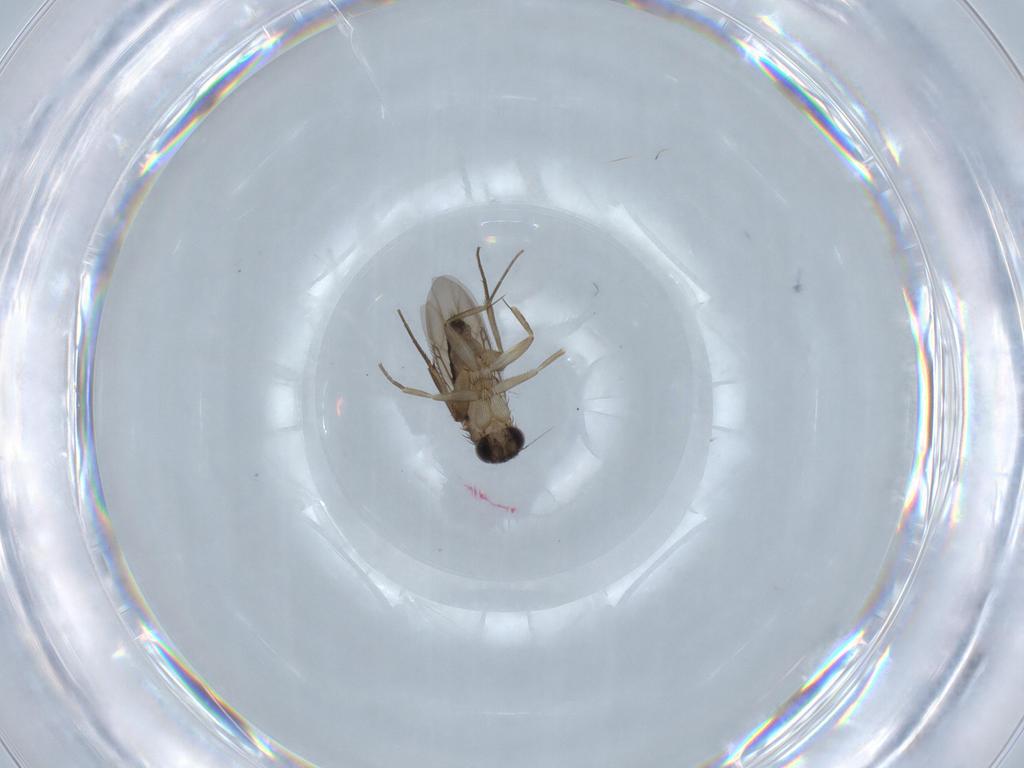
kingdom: Animalia
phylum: Arthropoda
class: Insecta
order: Diptera
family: Phoridae
